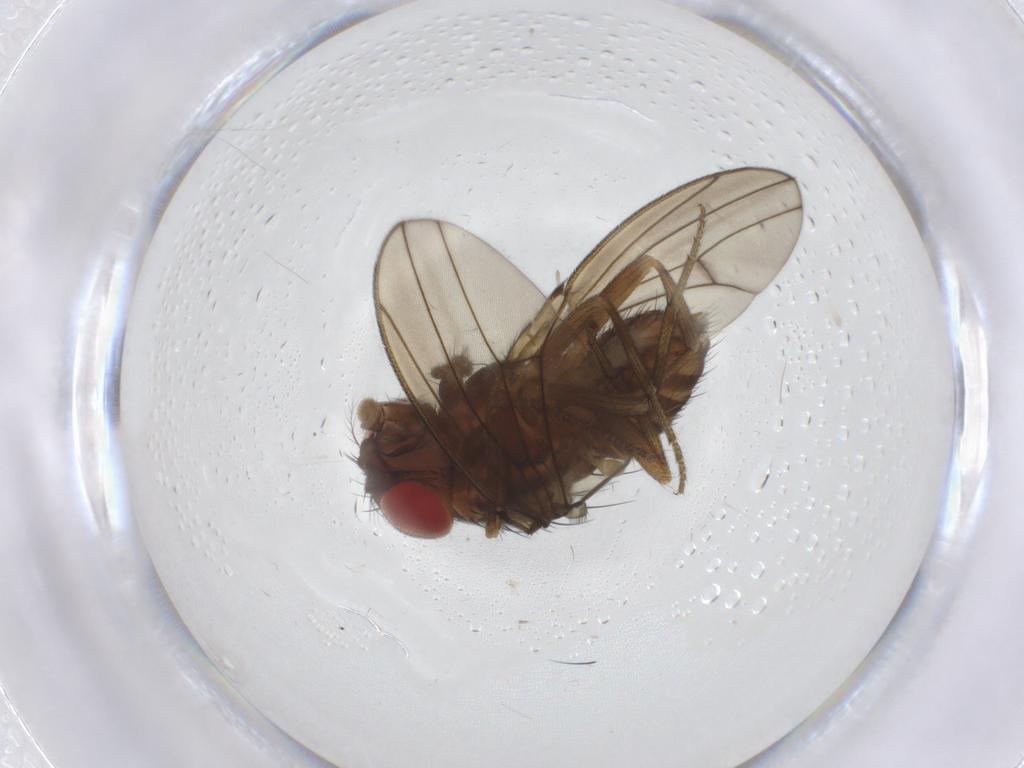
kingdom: Animalia
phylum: Arthropoda
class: Insecta
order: Diptera
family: Drosophilidae
